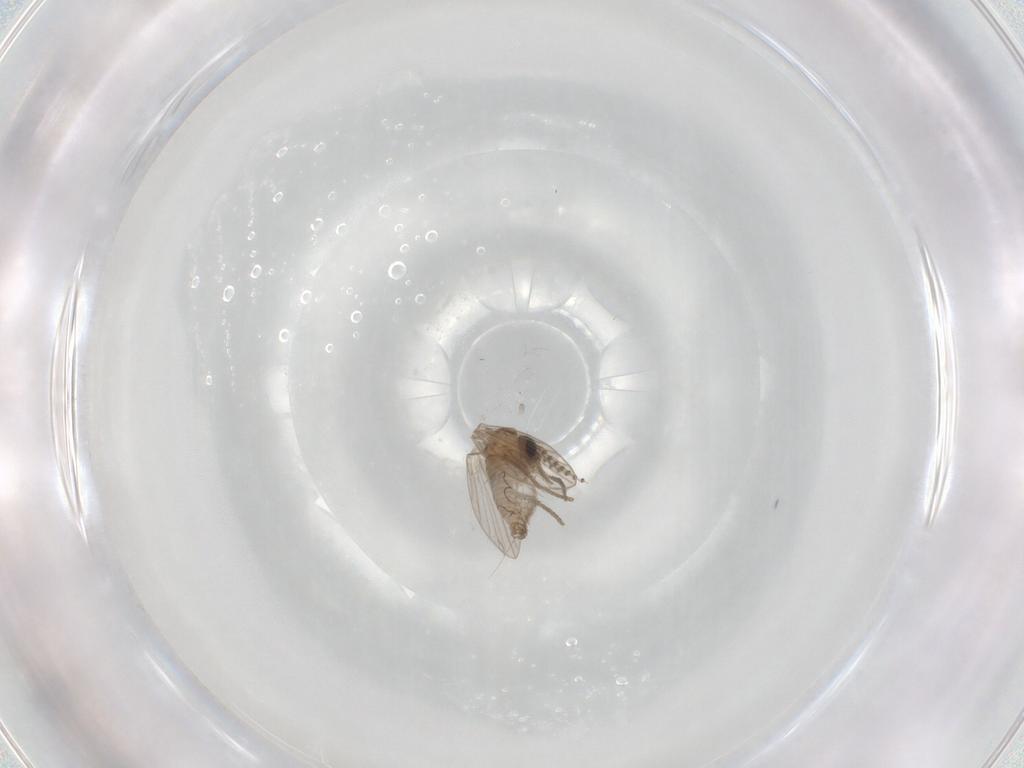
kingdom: Animalia
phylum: Arthropoda
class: Insecta
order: Diptera
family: Psychodidae
